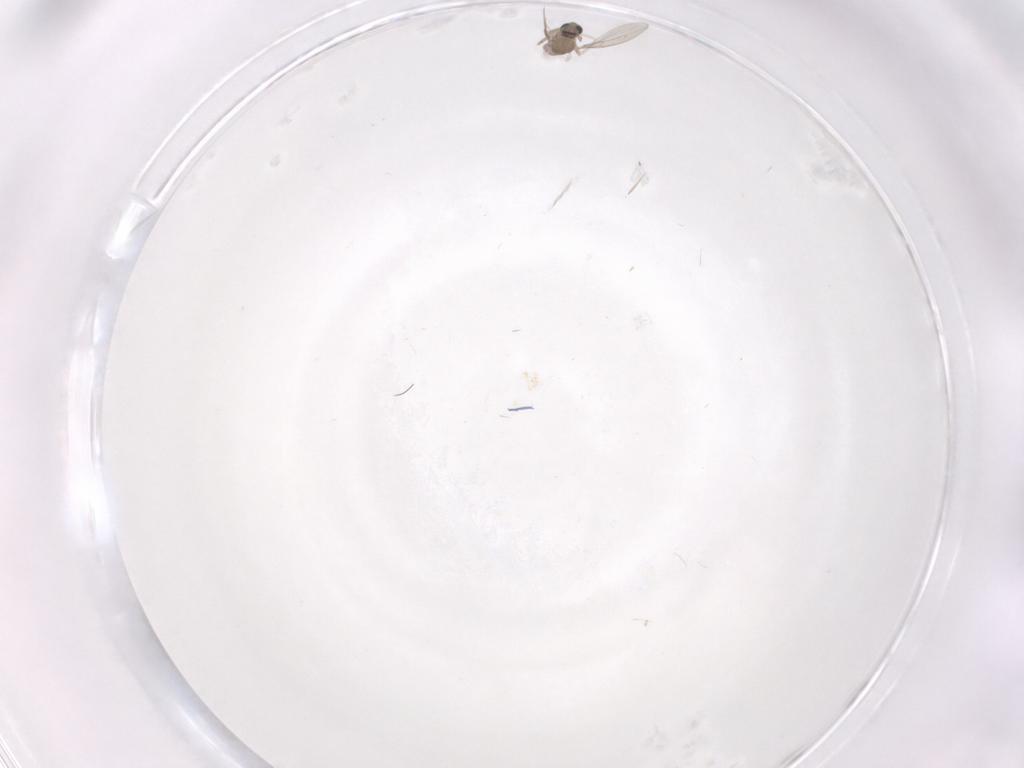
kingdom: Animalia
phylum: Arthropoda
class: Insecta
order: Diptera
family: Cecidomyiidae
